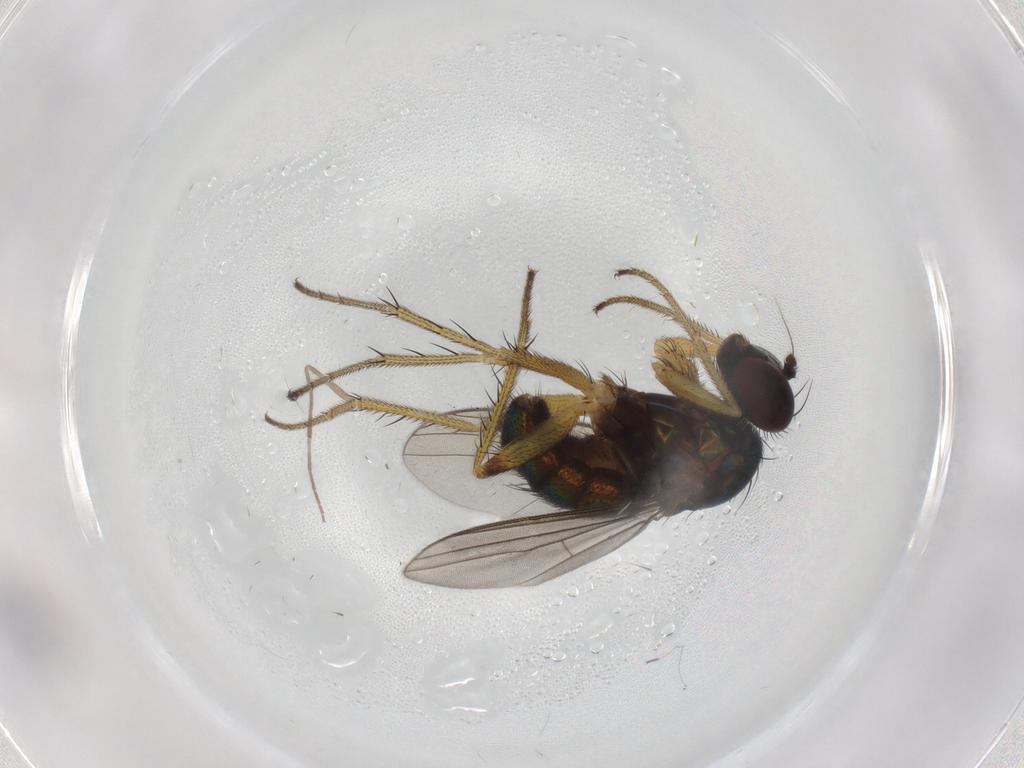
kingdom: Animalia
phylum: Arthropoda
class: Insecta
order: Diptera
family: Dolichopodidae
